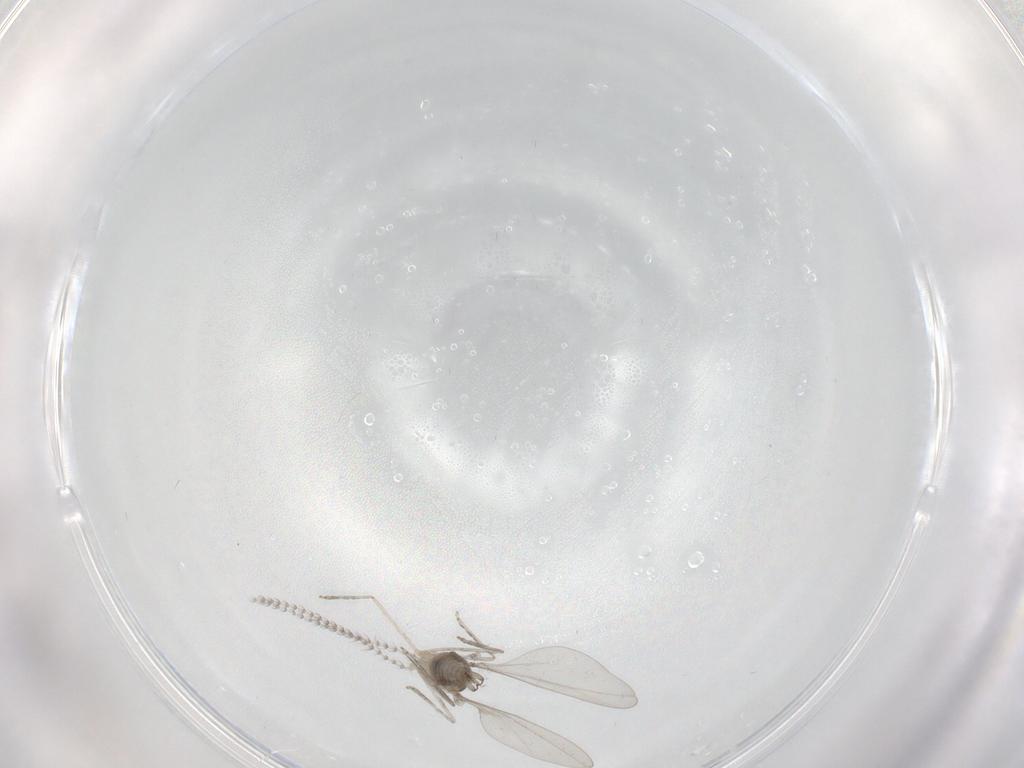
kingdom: Animalia
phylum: Arthropoda
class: Insecta
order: Diptera
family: Cecidomyiidae
